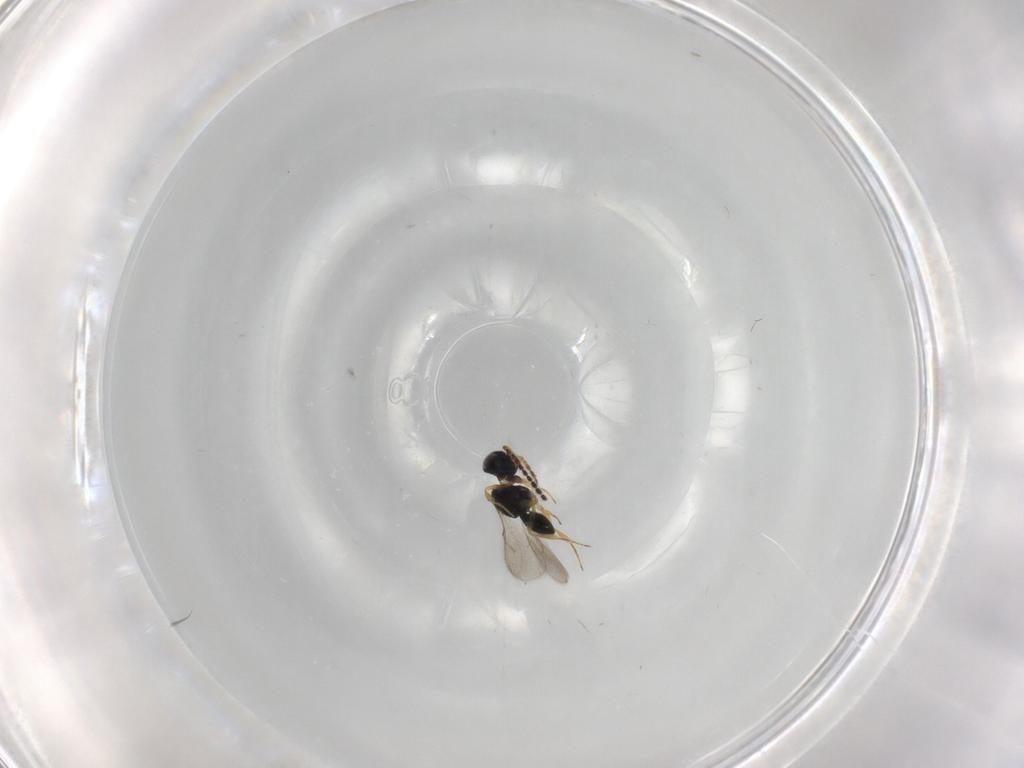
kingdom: Animalia
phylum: Arthropoda
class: Insecta
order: Hymenoptera
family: Scelionidae
